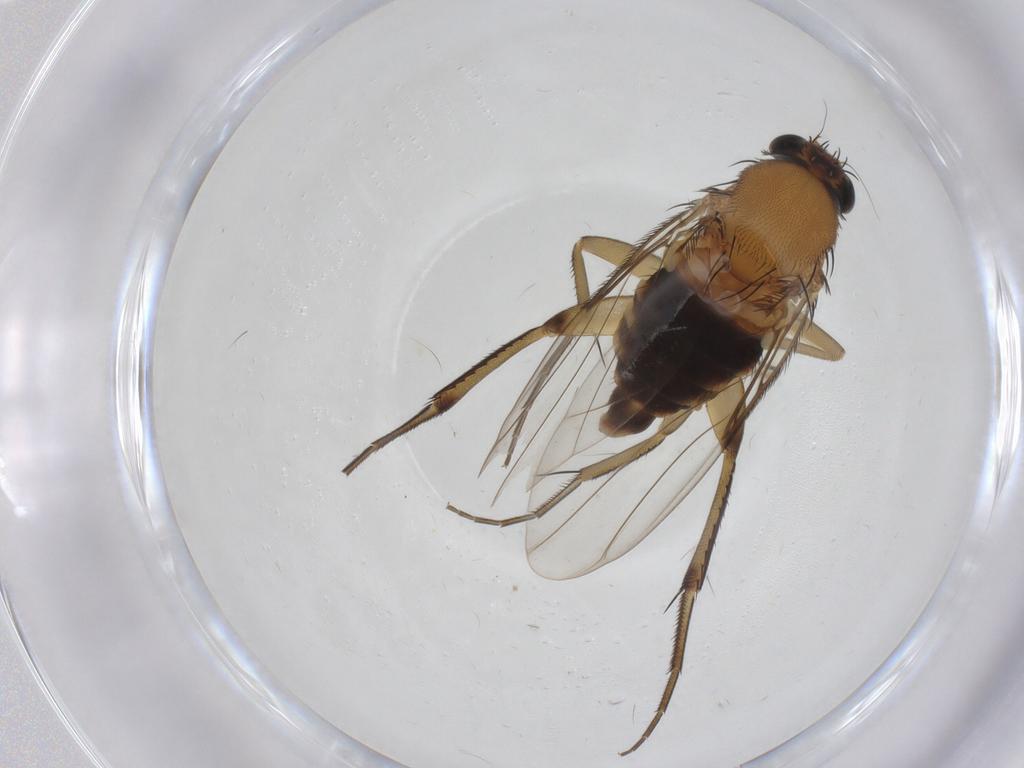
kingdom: Animalia
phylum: Arthropoda
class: Insecta
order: Diptera
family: Phoridae
